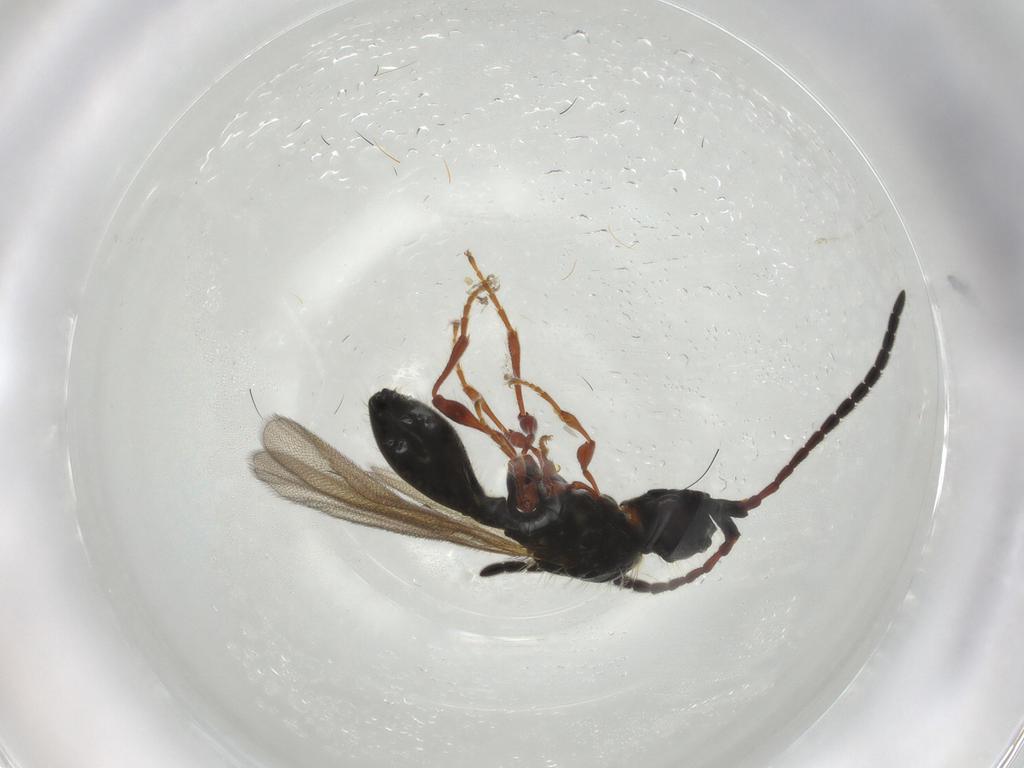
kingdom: Animalia
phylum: Arthropoda
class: Insecta
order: Hymenoptera
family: Diapriidae
